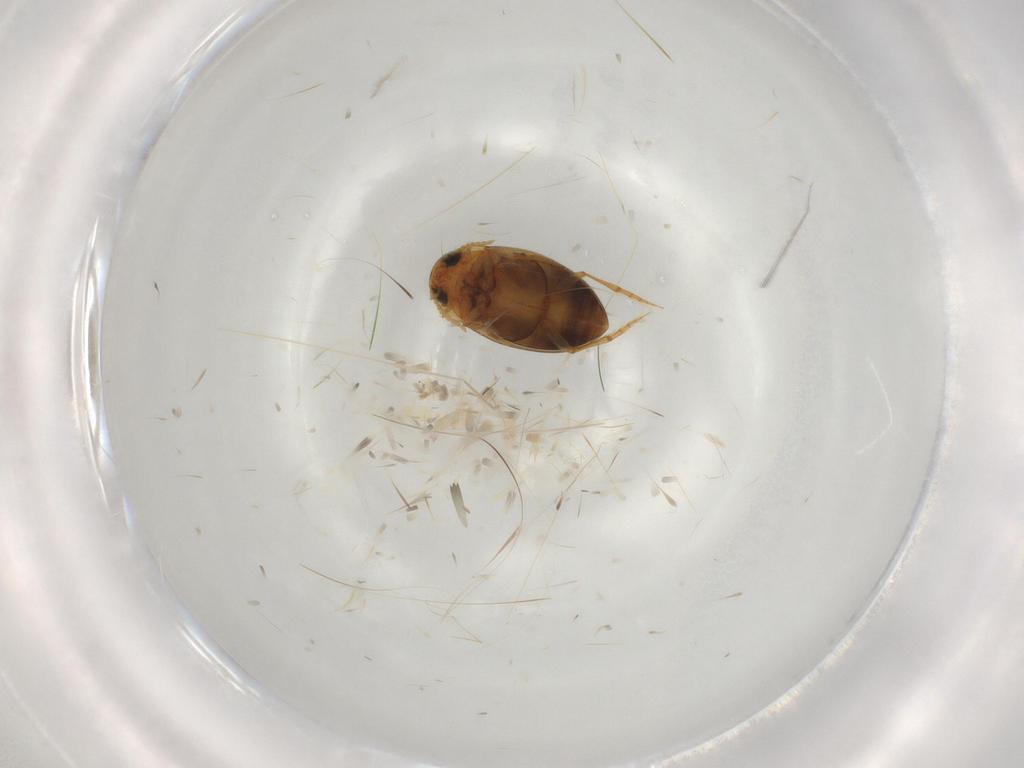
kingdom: Animalia
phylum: Arthropoda
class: Insecta
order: Coleoptera
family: Dytiscidae
